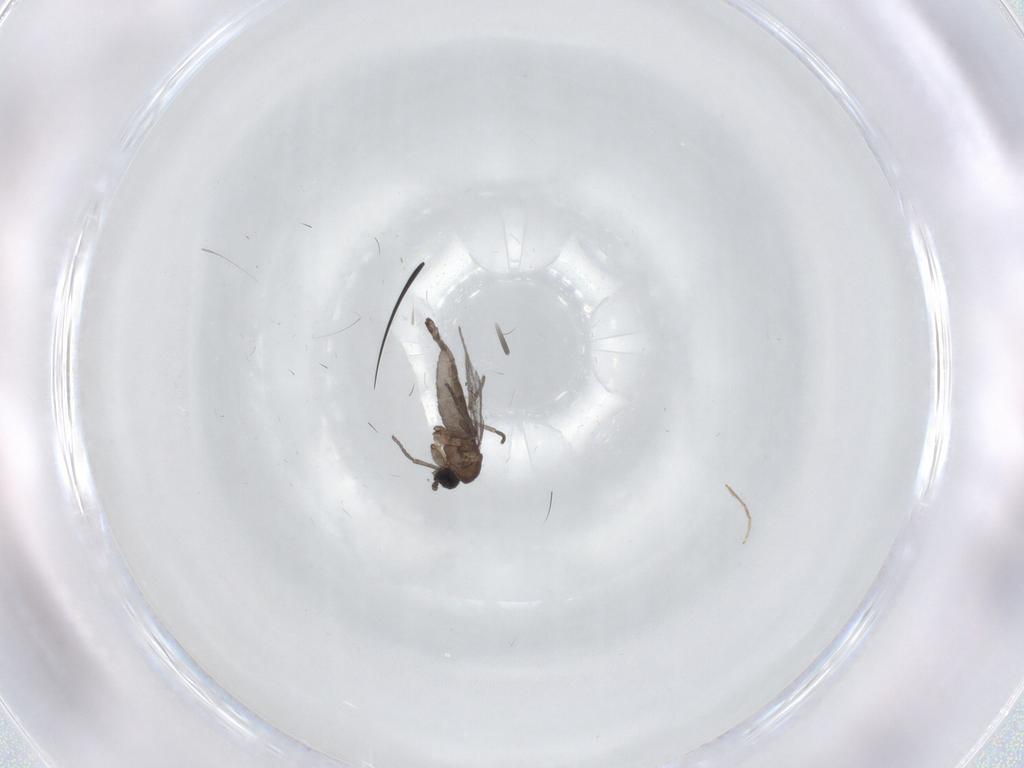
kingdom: Animalia
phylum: Arthropoda
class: Insecta
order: Diptera
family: Sciaridae
